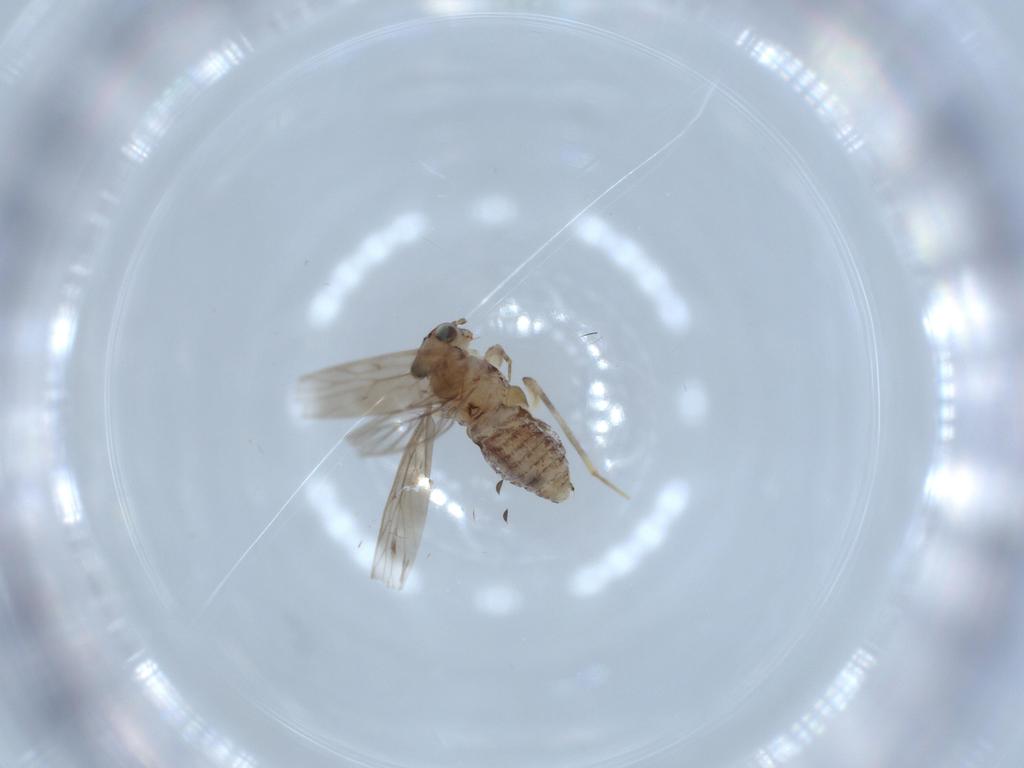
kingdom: Animalia
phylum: Arthropoda
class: Insecta
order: Psocodea
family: Lepidopsocidae
